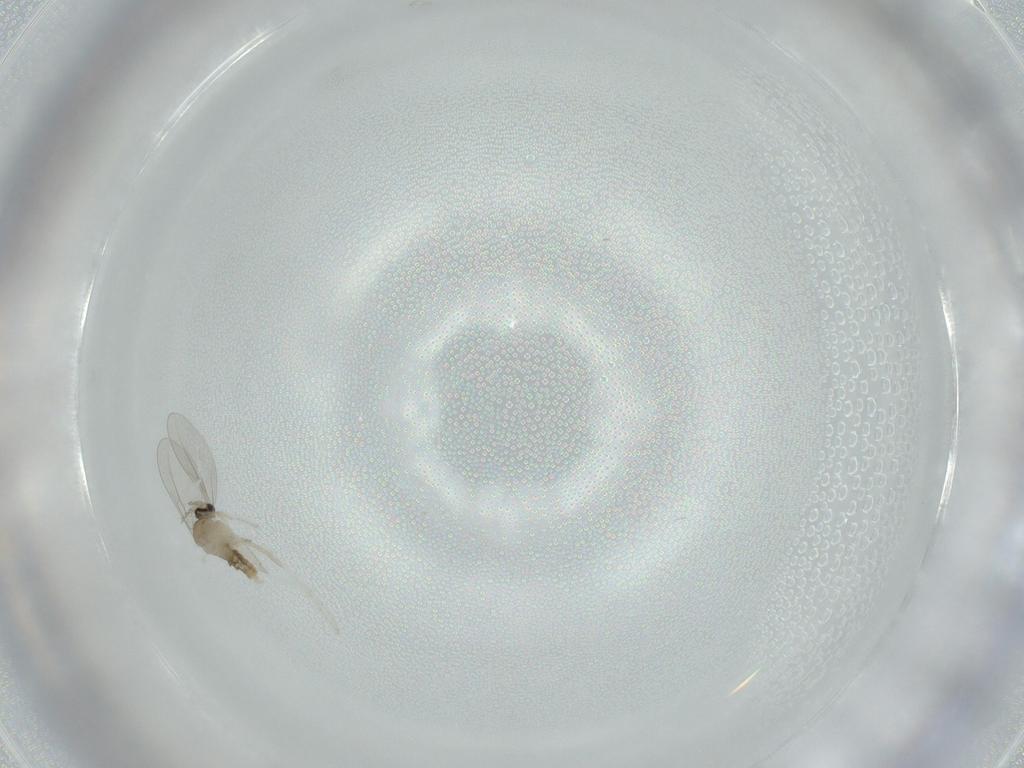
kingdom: Animalia
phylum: Arthropoda
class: Insecta
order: Diptera
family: Cecidomyiidae
